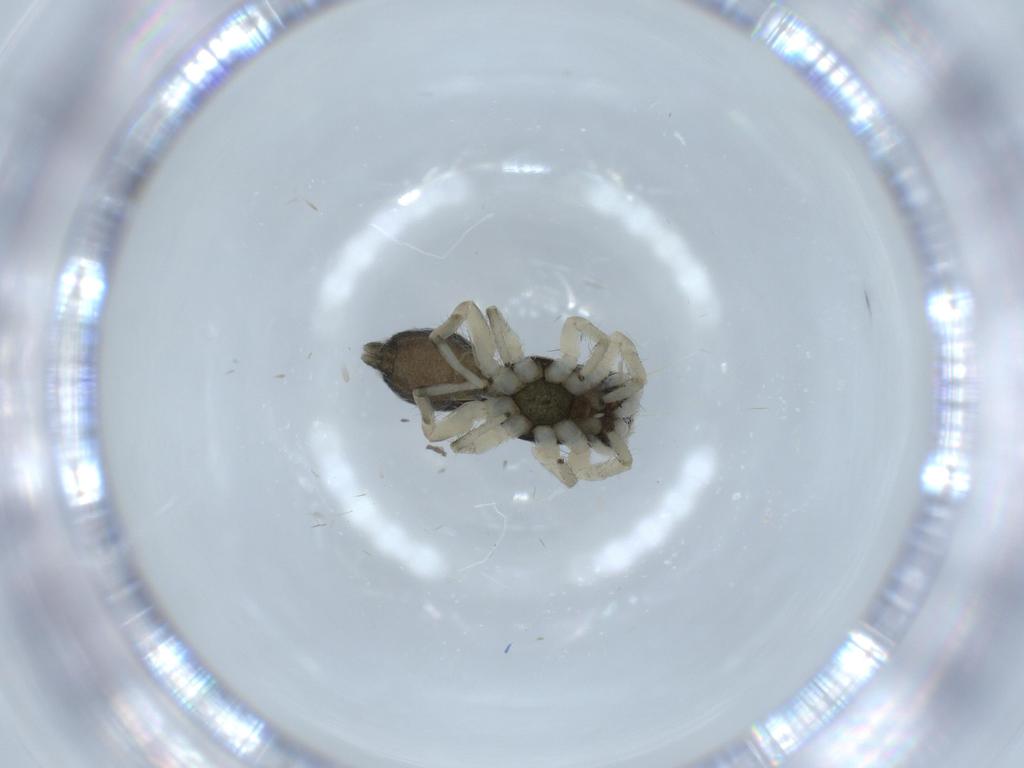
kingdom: Animalia
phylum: Arthropoda
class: Arachnida
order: Araneae
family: Salticidae
